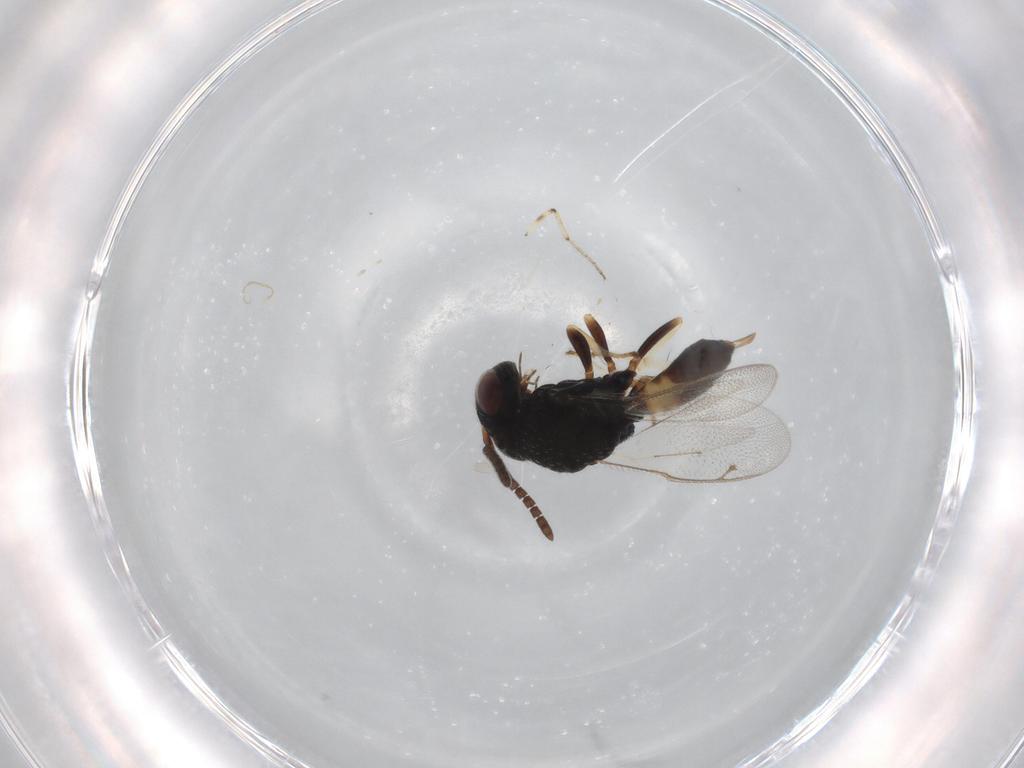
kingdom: Animalia
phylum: Arthropoda
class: Insecta
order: Hymenoptera
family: Pteromalidae
